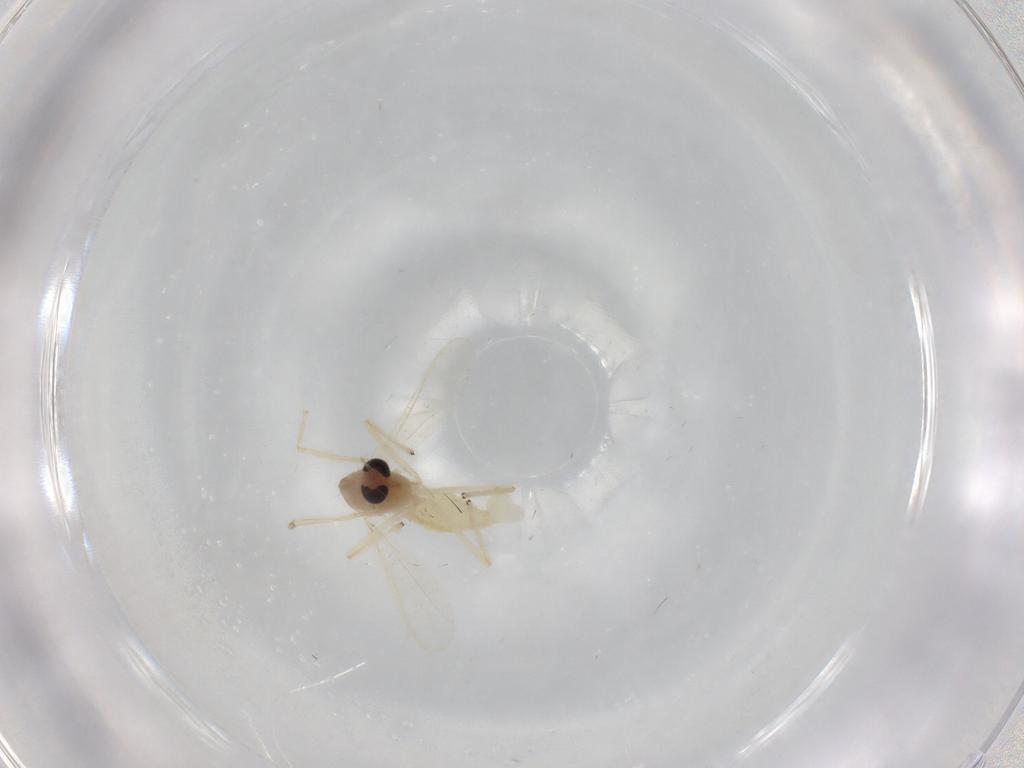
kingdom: Animalia
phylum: Arthropoda
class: Insecta
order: Diptera
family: Chironomidae
